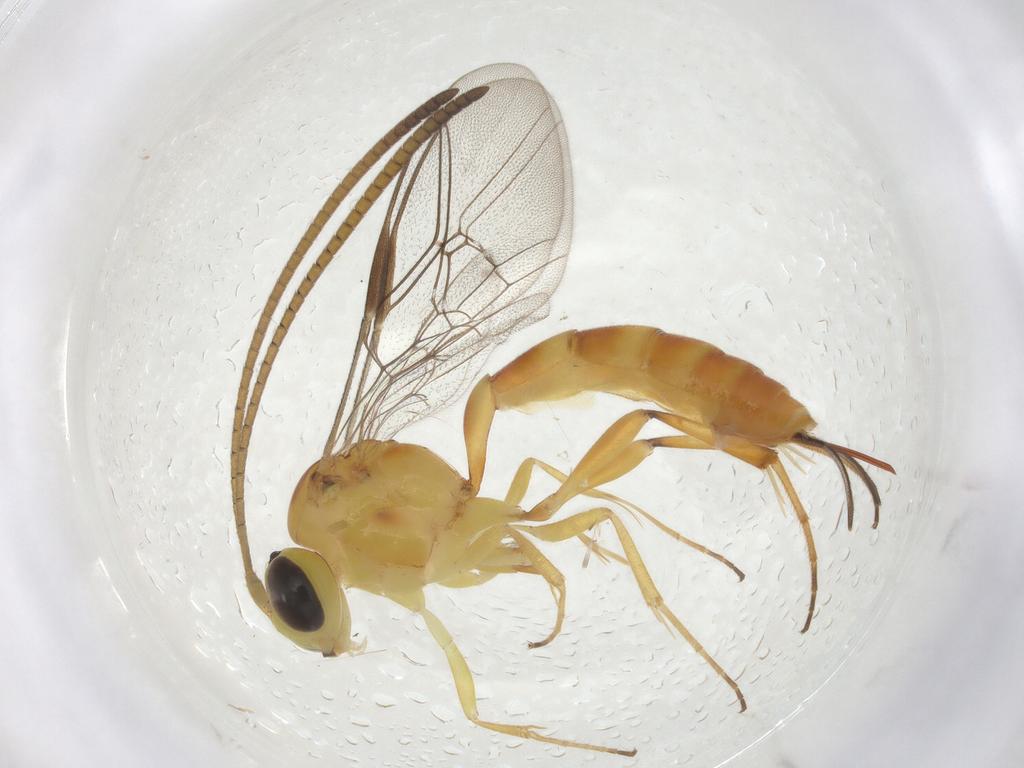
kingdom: Animalia
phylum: Arthropoda
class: Insecta
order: Hymenoptera
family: Ichneumonidae
